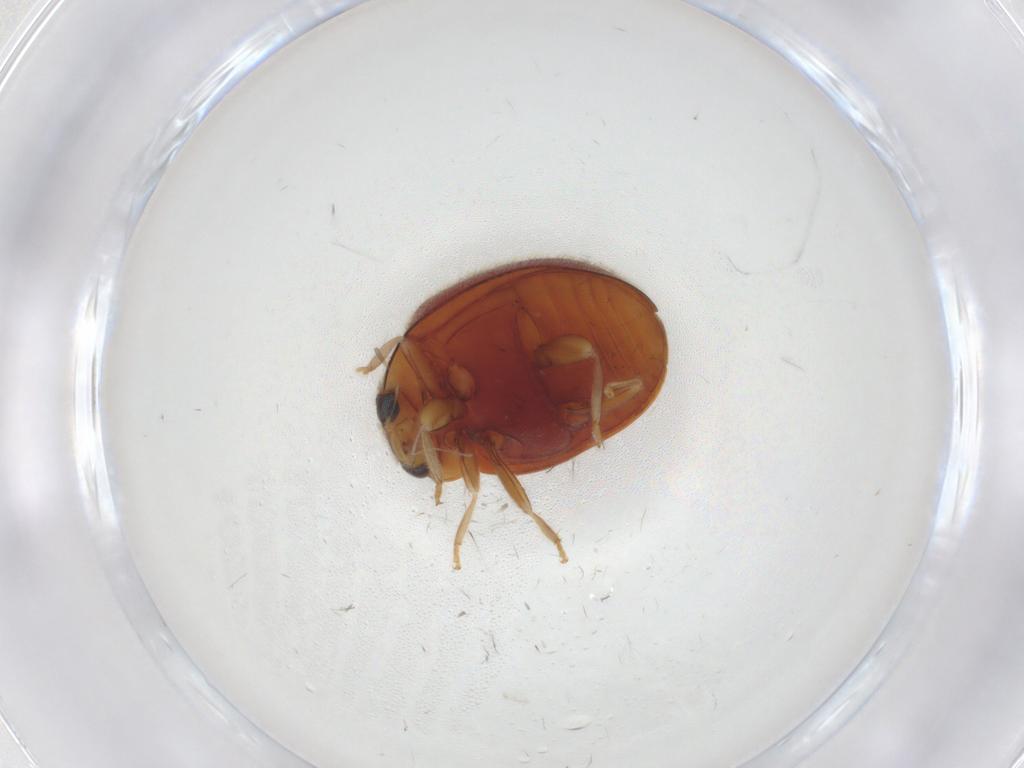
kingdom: Animalia
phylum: Arthropoda
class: Insecta
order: Coleoptera
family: Coccinellidae
